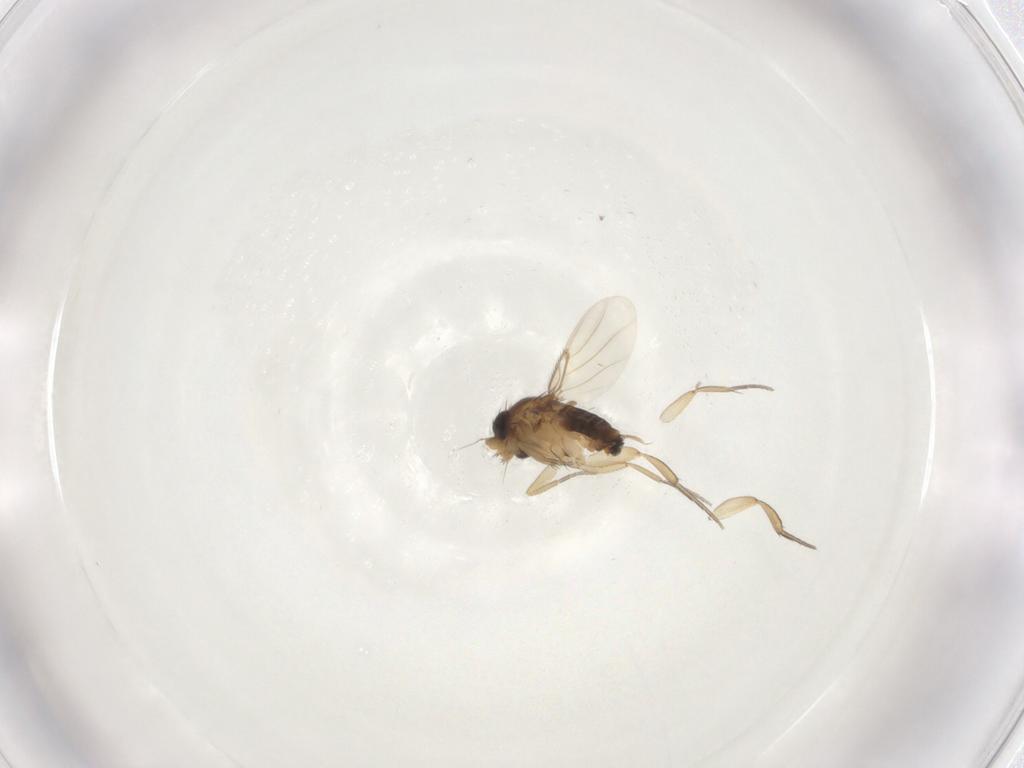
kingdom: Animalia
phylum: Arthropoda
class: Insecta
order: Diptera
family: Phoridae
